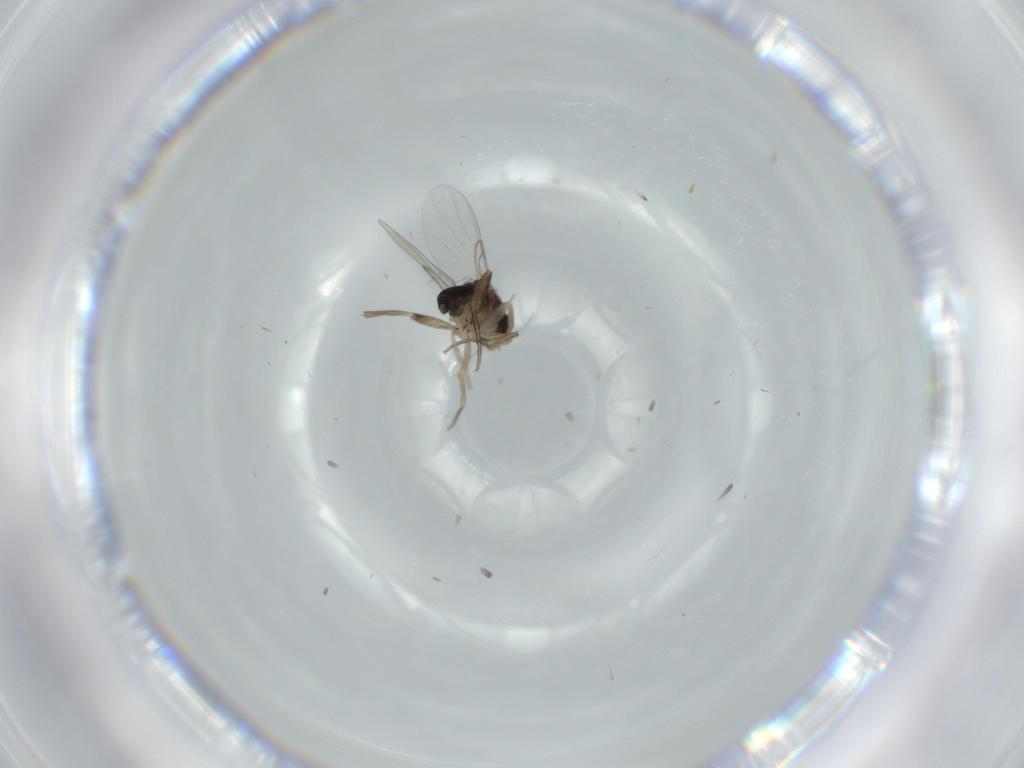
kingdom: Animalia
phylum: Arthropoda
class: Insecta
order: Diptera
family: Phoridae
